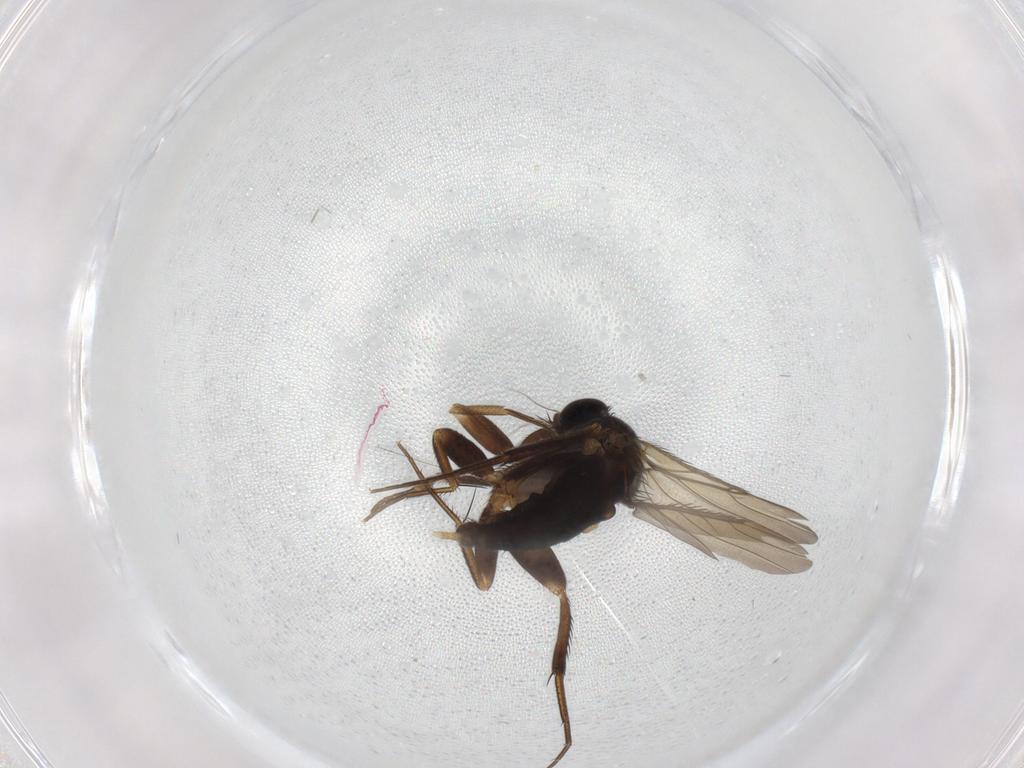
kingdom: Animalia
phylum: Arthropoda
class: Insecta
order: Diptera
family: Phoridae
